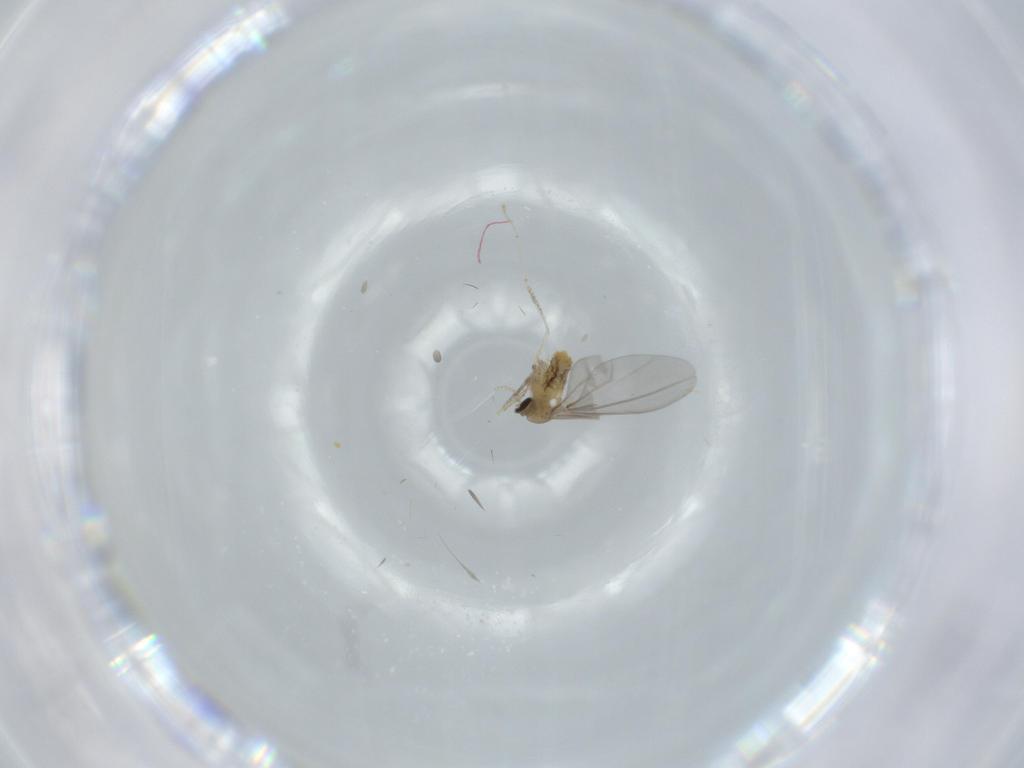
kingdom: Animalia
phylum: Arthropoda
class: Insecta
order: Diptera
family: Cecidomyiidae
